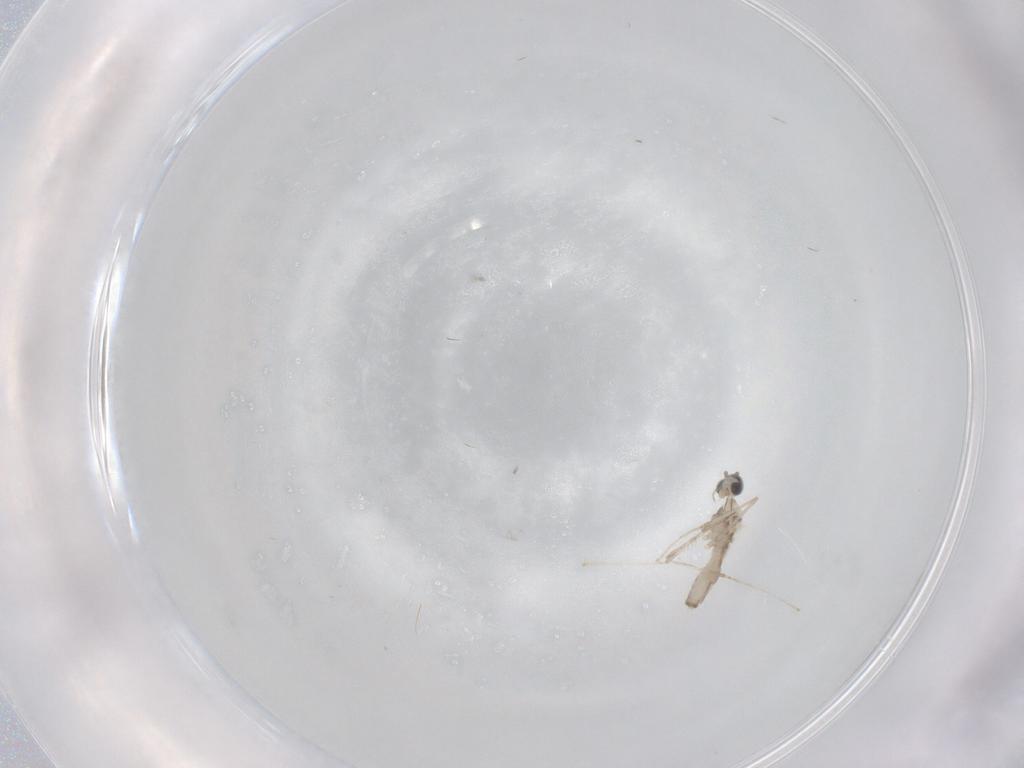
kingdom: Animalia
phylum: Arthropoda
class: Insecta
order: Diptera
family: Cecidomyiidae
